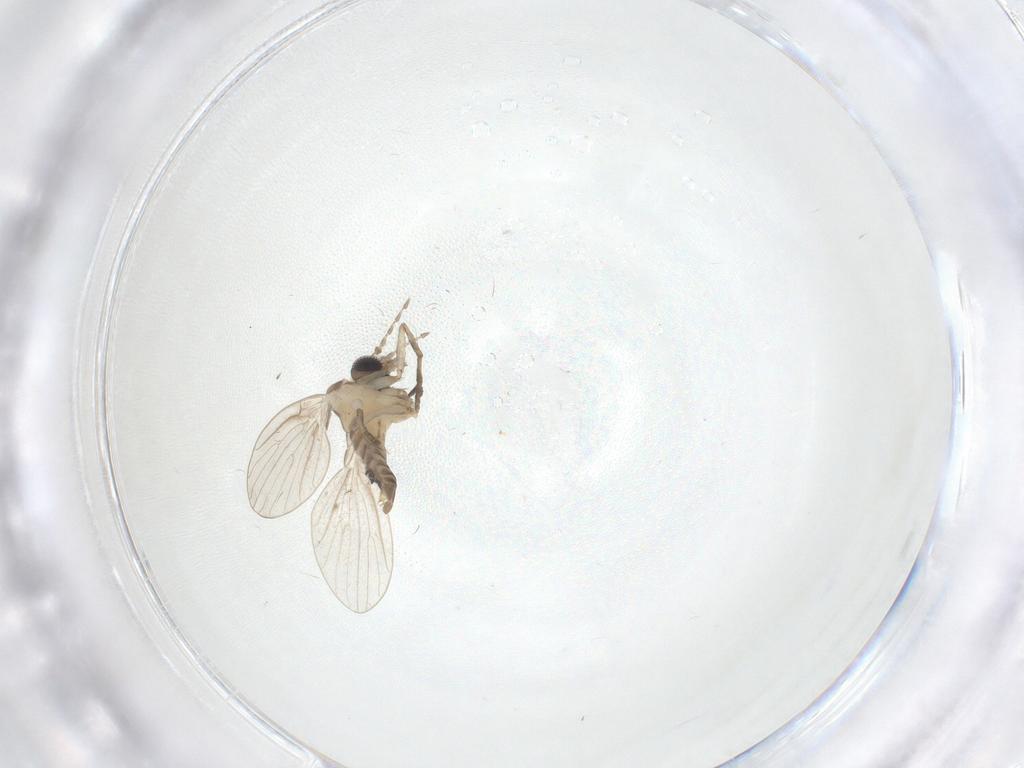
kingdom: Animalia
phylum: Arthropoda
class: Insecta
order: Diptera
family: Psychodidae
